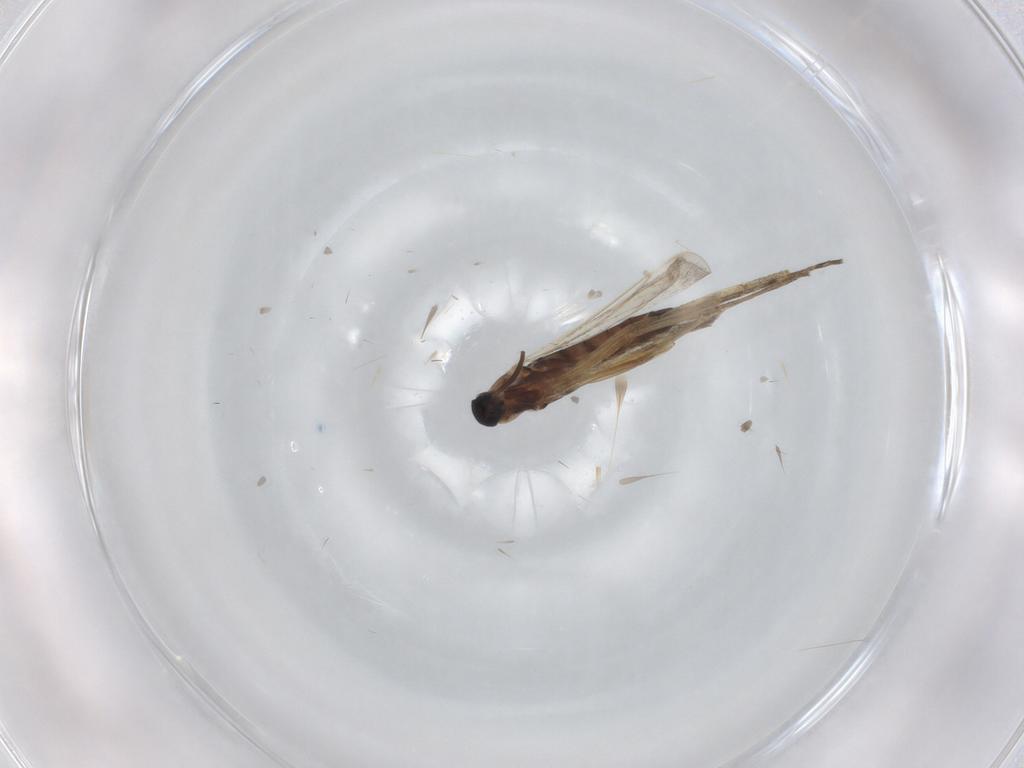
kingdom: Animalia
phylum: Arthropoda
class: Insecta
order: Diptera
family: Cecidomyiidae
